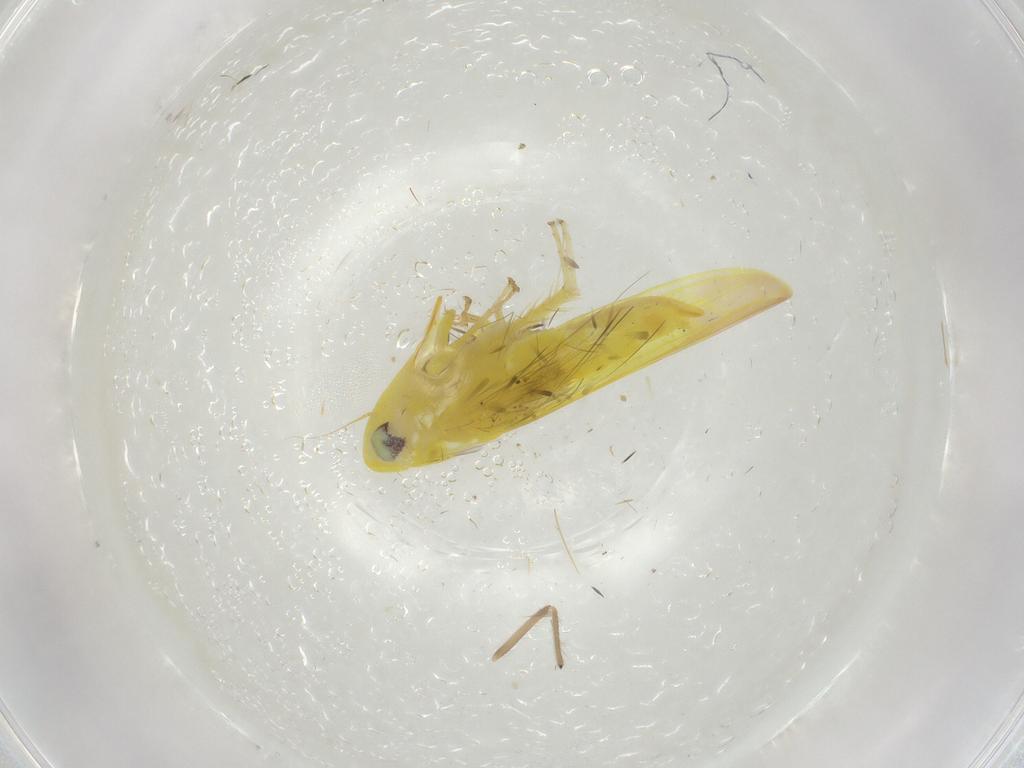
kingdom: Animalia
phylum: Arthropoda
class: Insecta
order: Hemiptera
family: Miridae
